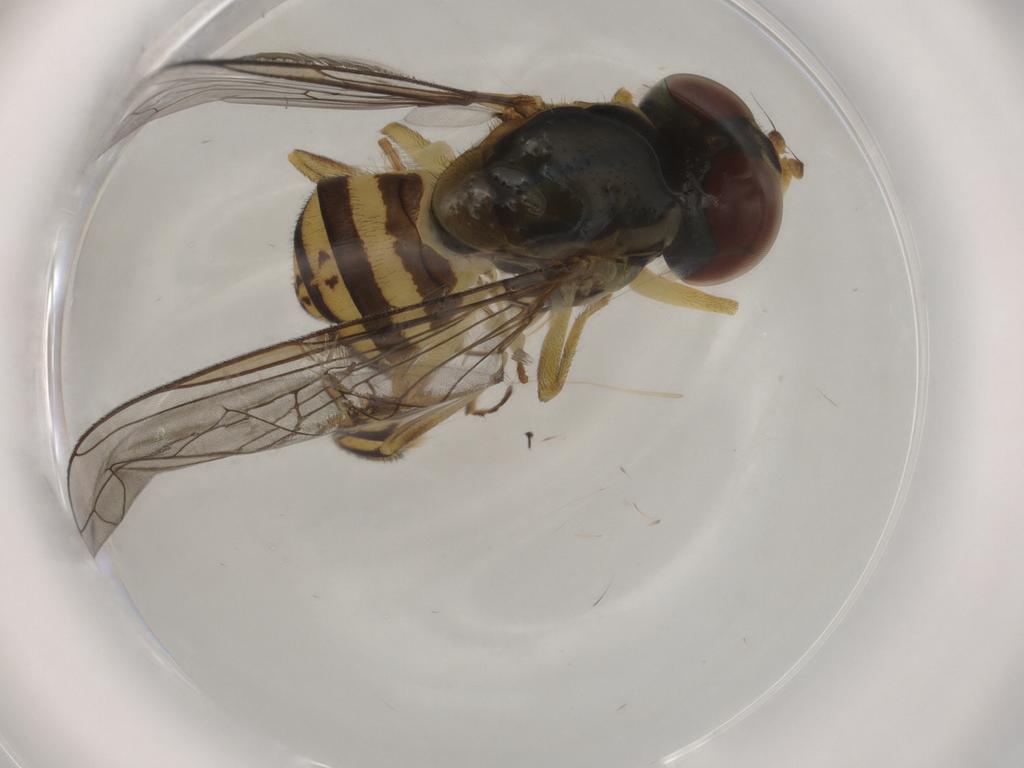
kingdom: Animalia
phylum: Arthropoda
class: Insecta
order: Diptera
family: Syrphidae
